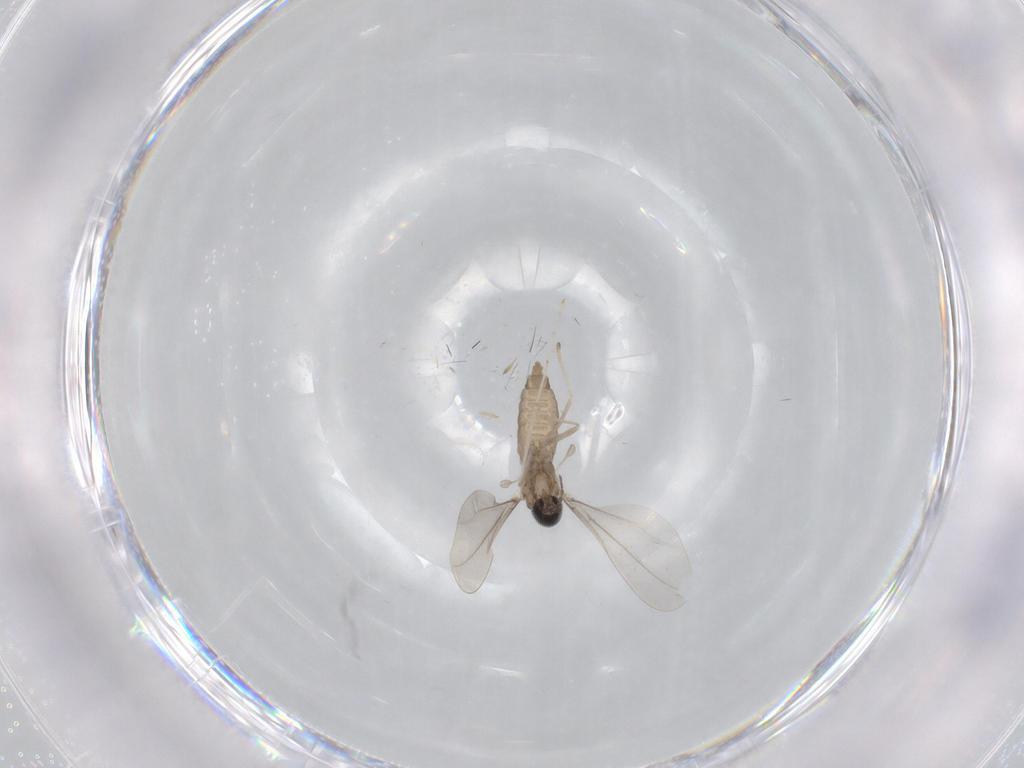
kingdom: Animalia
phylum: Arthropoda
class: Insecta
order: Diptera
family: Cecidomyiidae
